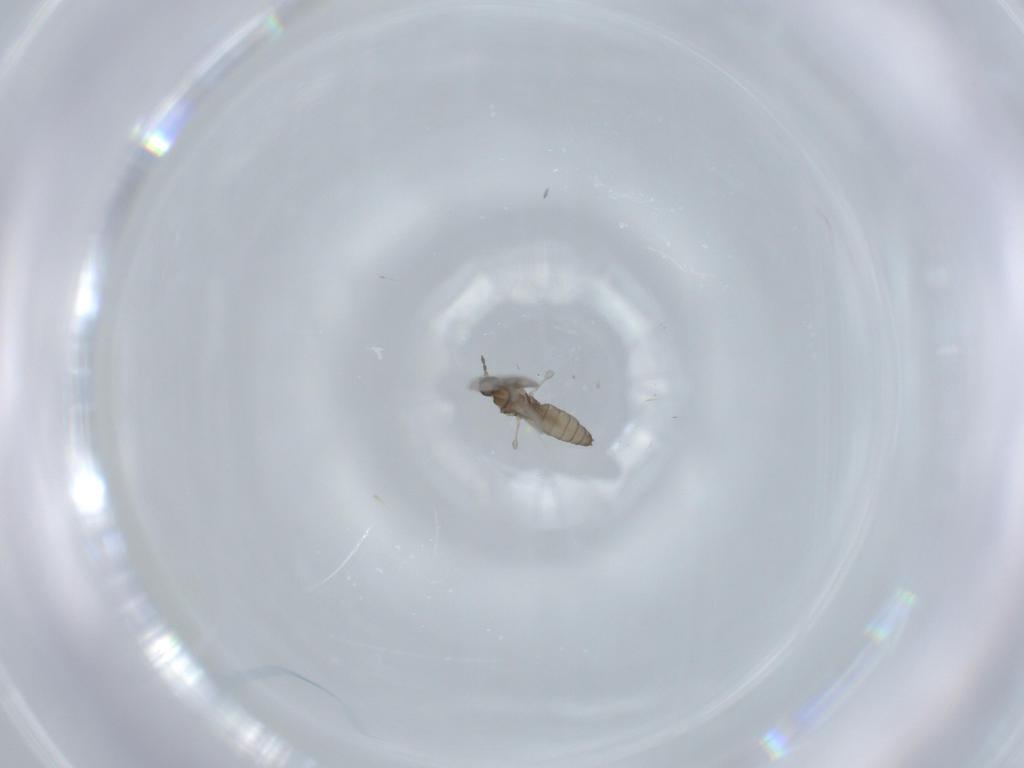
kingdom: Animalia
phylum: Arthropoda
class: Insecta
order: Diptera
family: Cecidomyiidae
